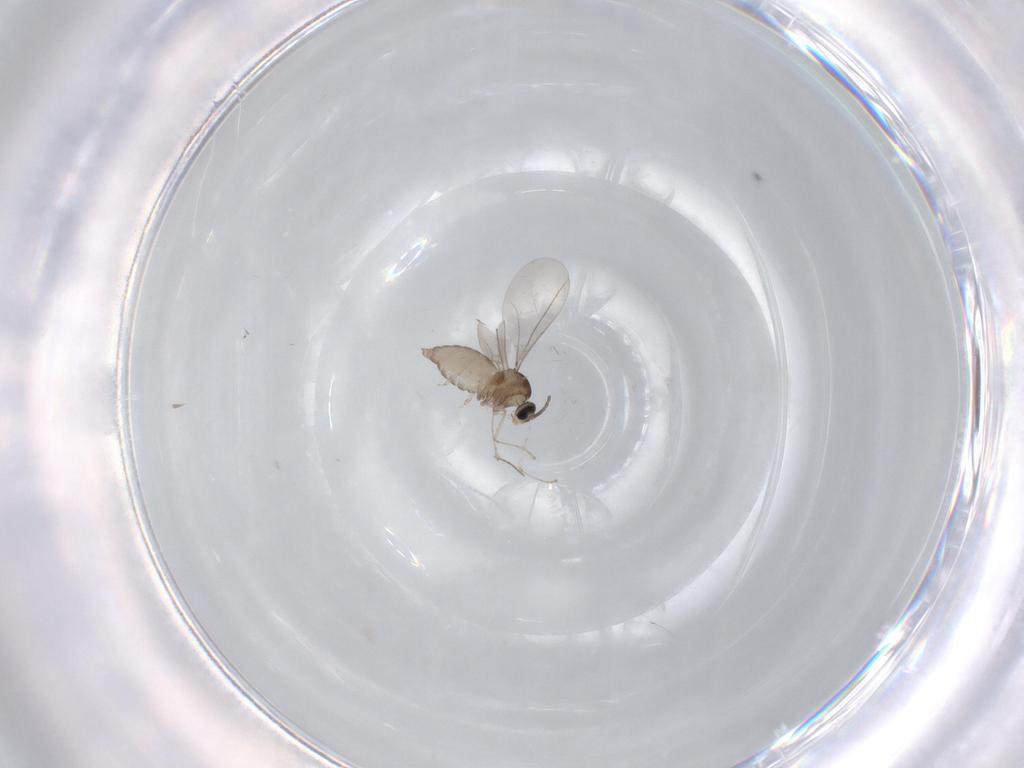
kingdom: Animalia
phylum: Arthropoda
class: Insecta
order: Diptera
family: Cecidomyiidae
